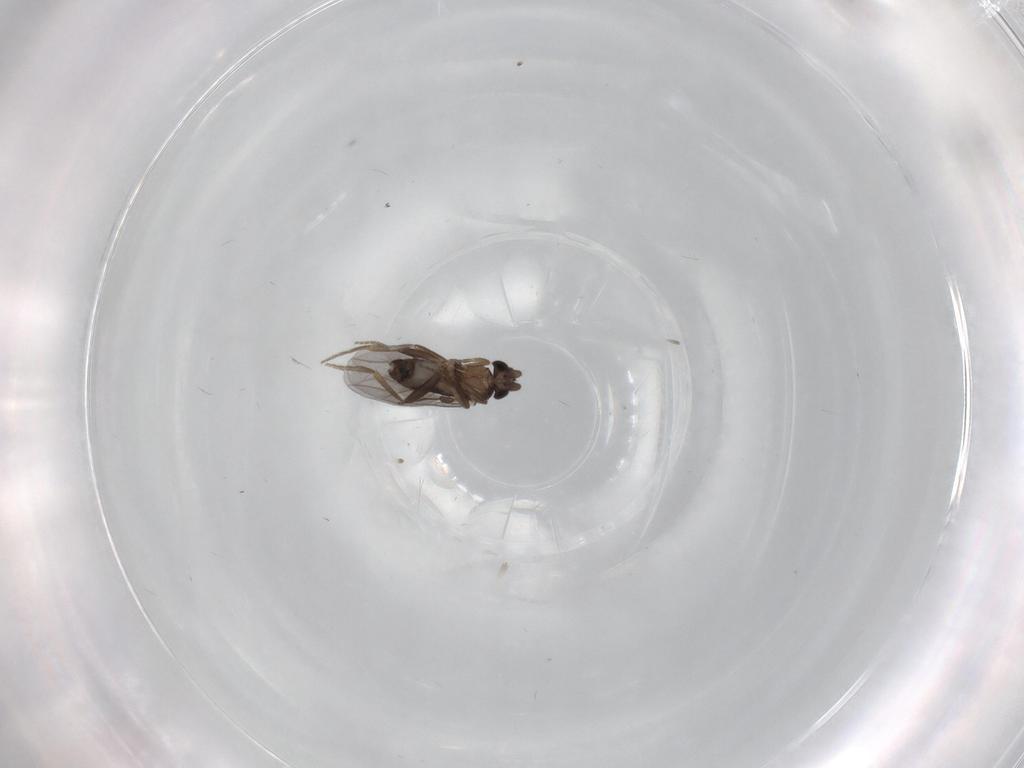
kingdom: Animalia
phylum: Arthropoda
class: Insecta
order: Diptera
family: Limoniidae
